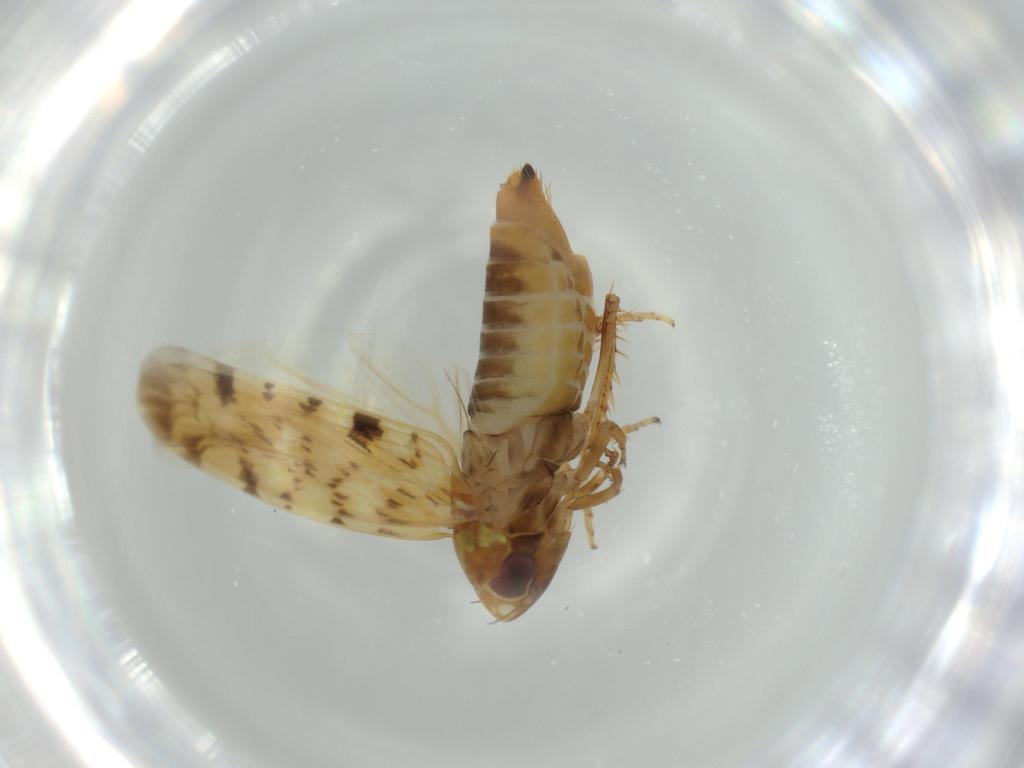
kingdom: Animalia
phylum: Arthropoda
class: Insecta
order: Hemiptera
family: Cicadellidae
